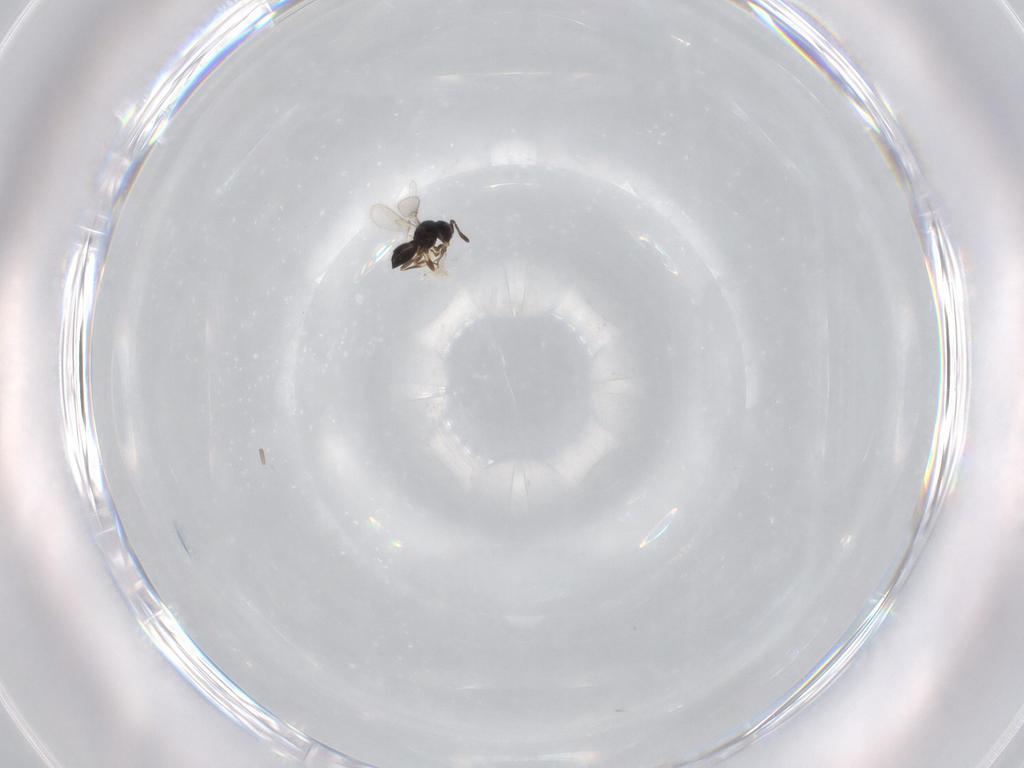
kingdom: Animalia
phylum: Arthropoda
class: Insecta
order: Hymenoptera
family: Scelionidae
